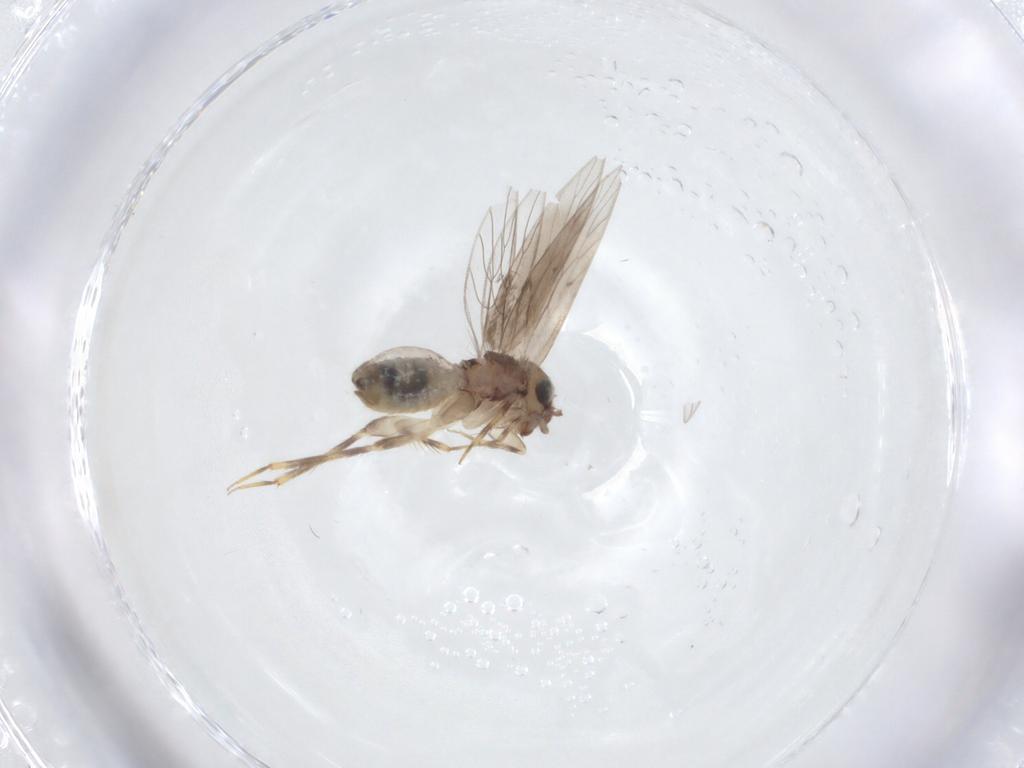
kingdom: Animalia
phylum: Arthropoda
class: Insecta
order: Psocodea
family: Lepidopsocidae
